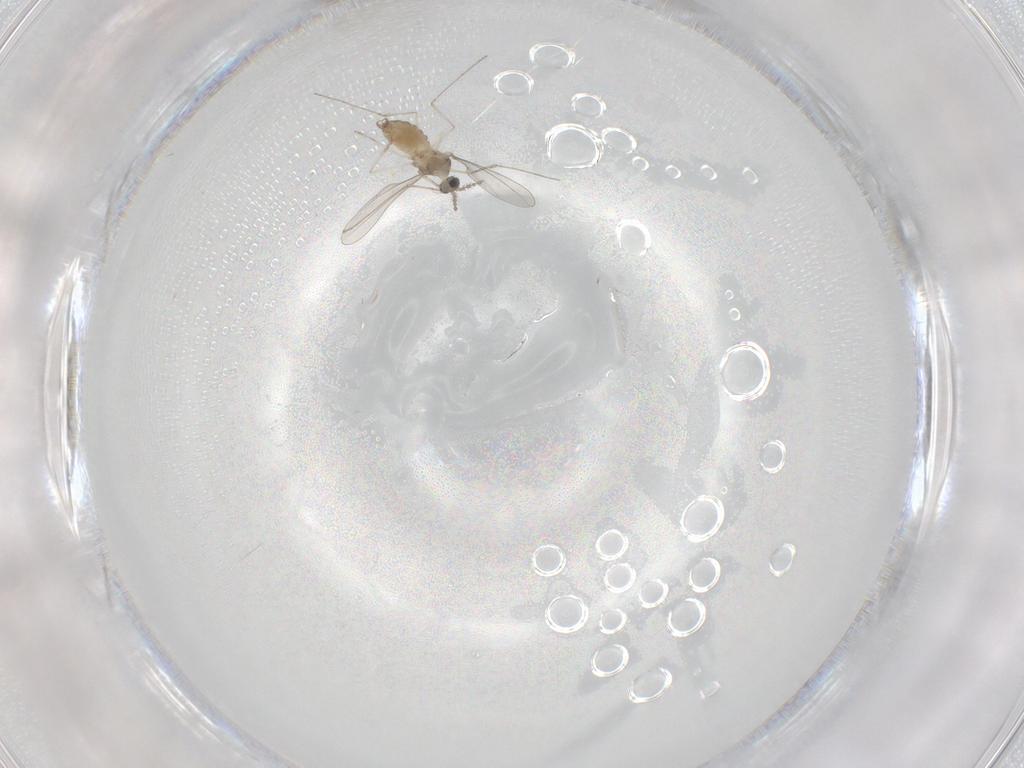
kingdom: Animalia
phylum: Arthropoda
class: Insecta
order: Diptera
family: Cecidomyiidae
